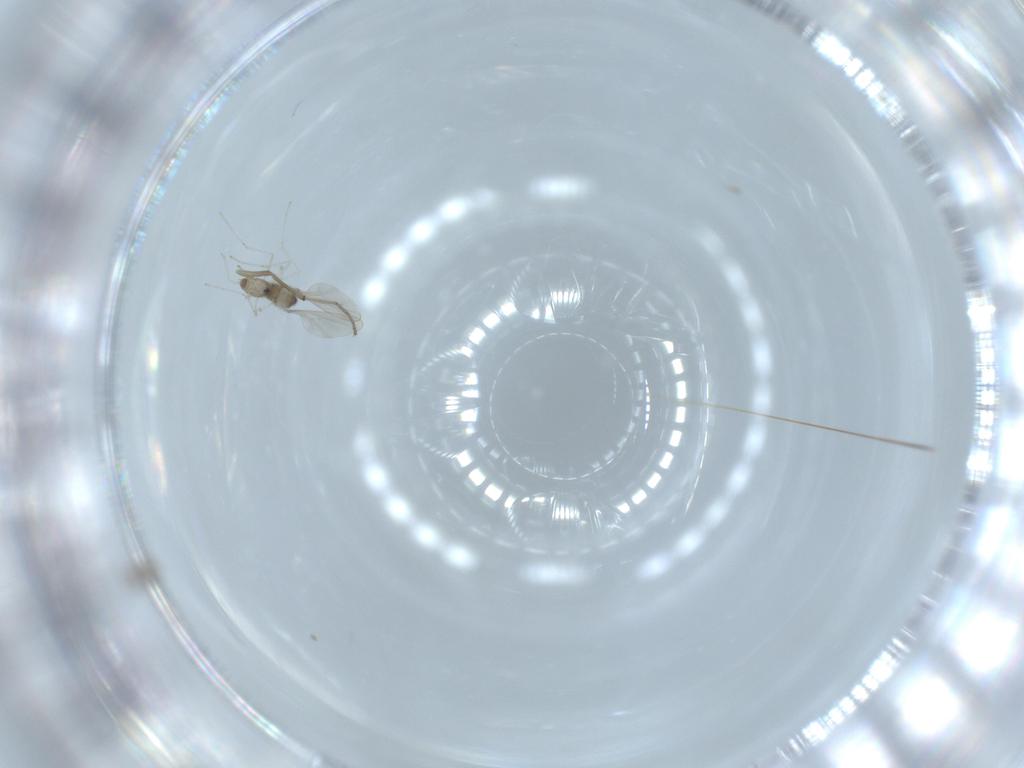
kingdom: Animalia
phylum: Arthropoda
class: Insecta
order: Diptera
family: Cecidomyiidae
